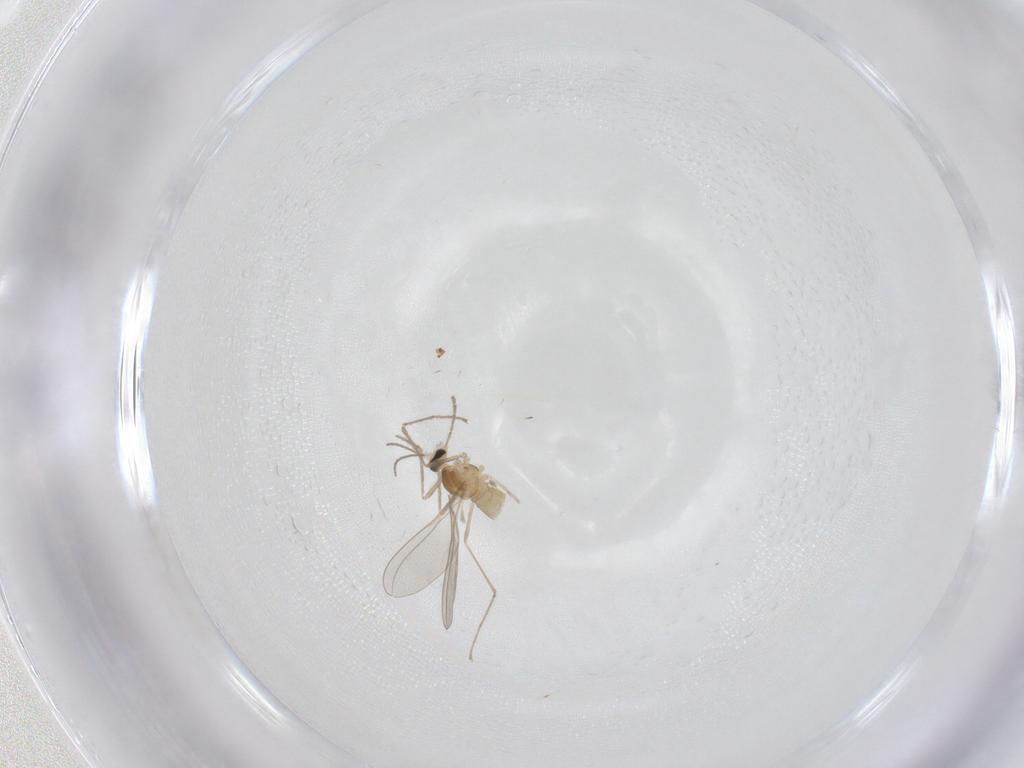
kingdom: Animalia
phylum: Arthropoda
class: Insecta
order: Diptera
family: Cecidomyiidae
